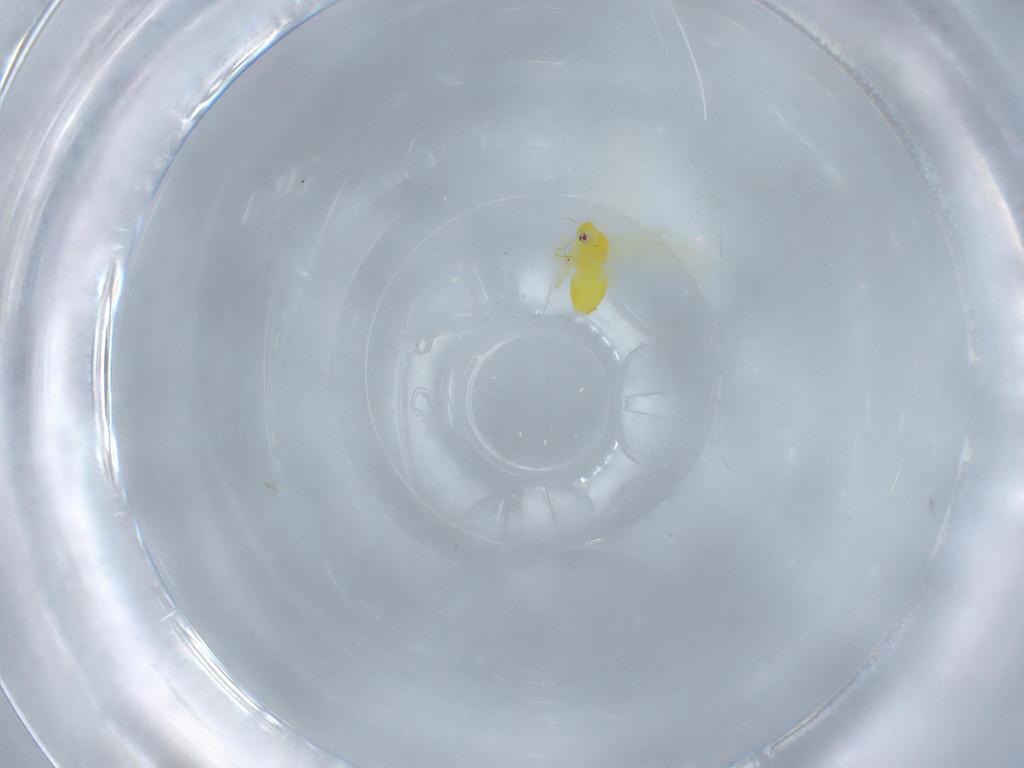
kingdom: Animalia
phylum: Arthropoda
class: Insecta
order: Hemiptera
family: Aleyrodidae
